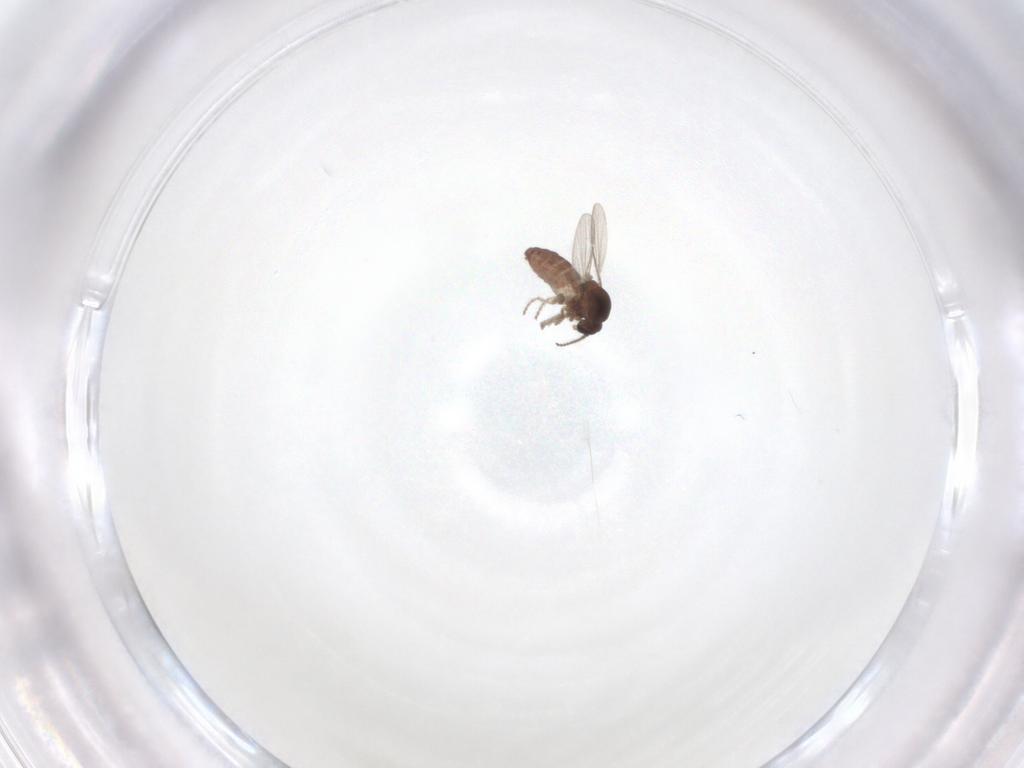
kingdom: Animalia
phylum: Arthropoda
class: Insecta
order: Diptera
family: Ceratopogonidae
